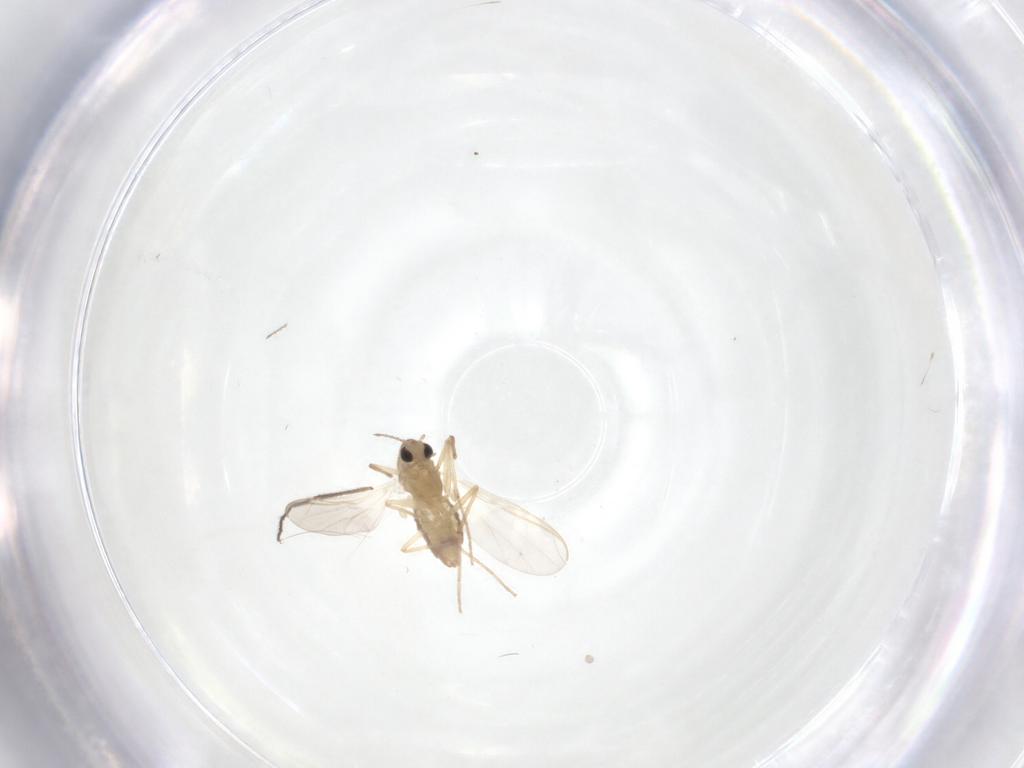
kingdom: Animalia
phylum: Arthropoda
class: Insecta
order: Diptera
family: Chironomidae
